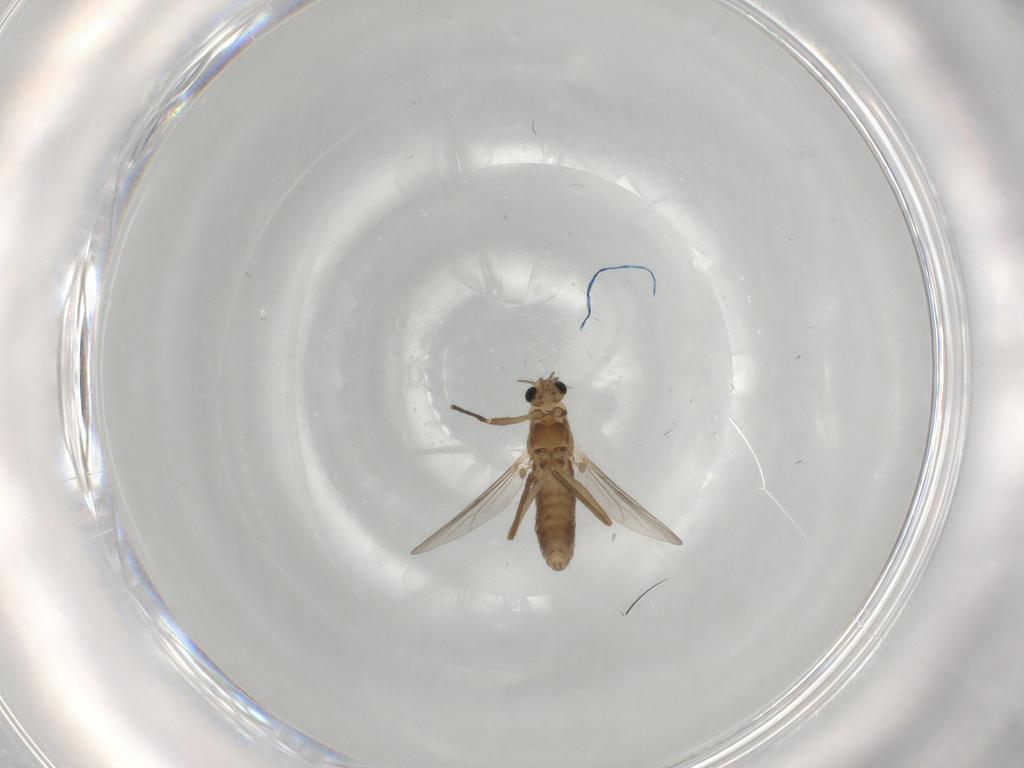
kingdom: Animalia
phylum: Arthropoda
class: Insecta
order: Diptera
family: Chironomidae
